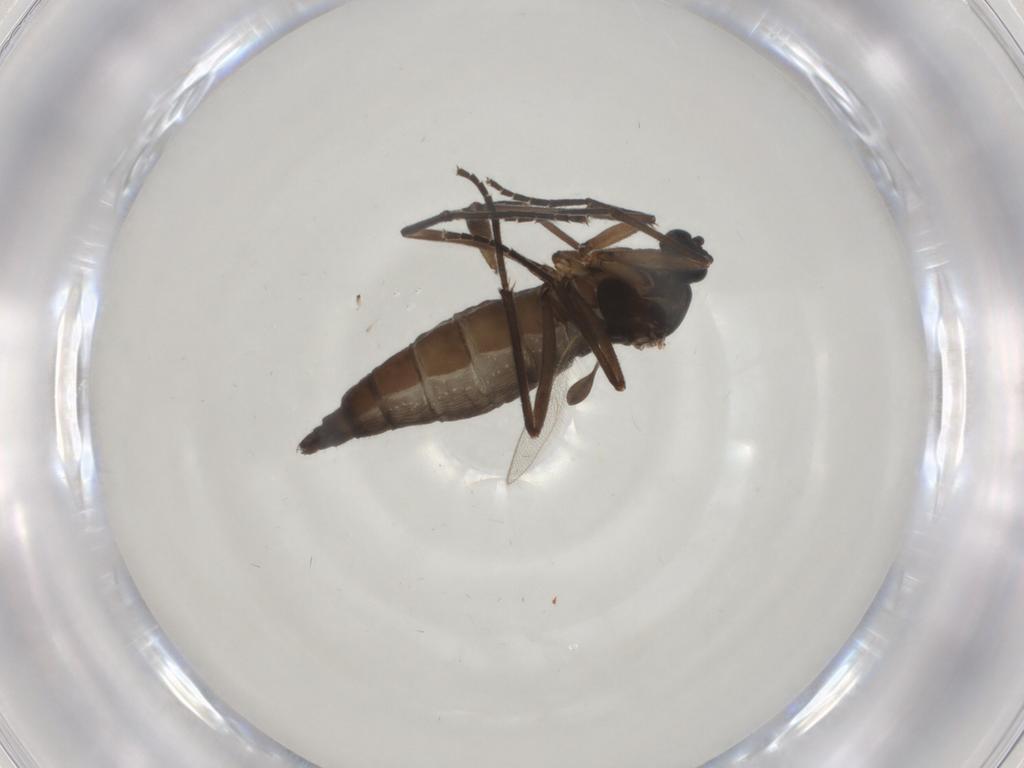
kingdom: Animalia
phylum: Arthropoda
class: Insecta
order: Diptera
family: Sciaridae
